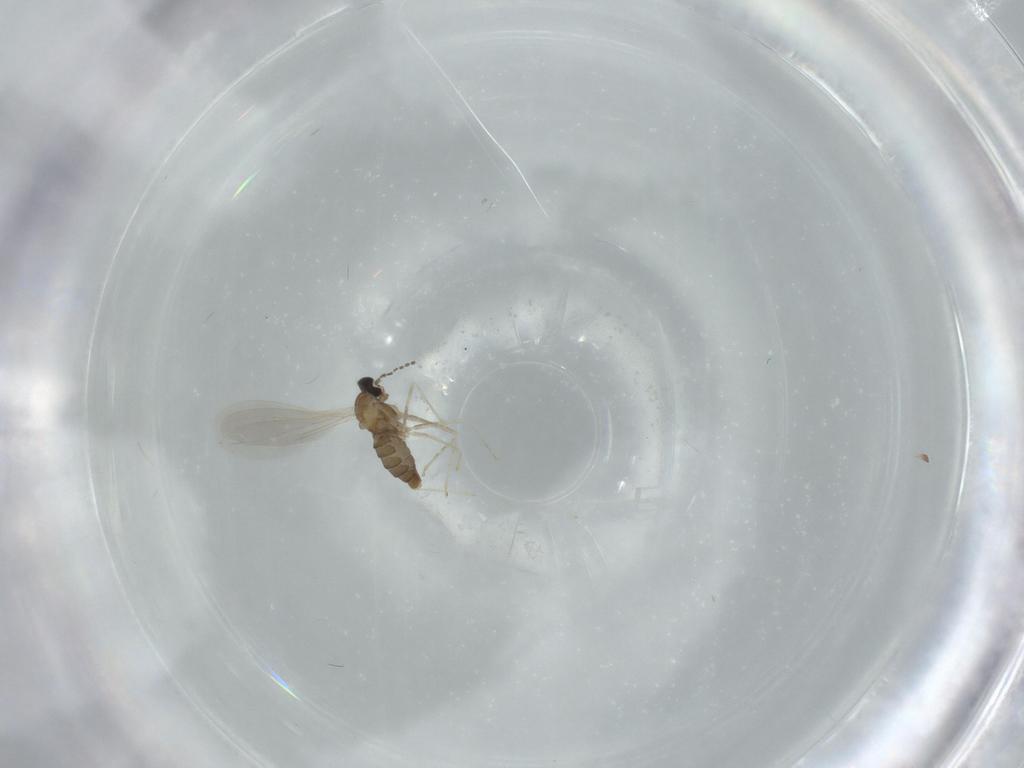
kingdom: Animalia
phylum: Arthropoda
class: Insecta
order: Diptera
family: Cecidomyiidae
